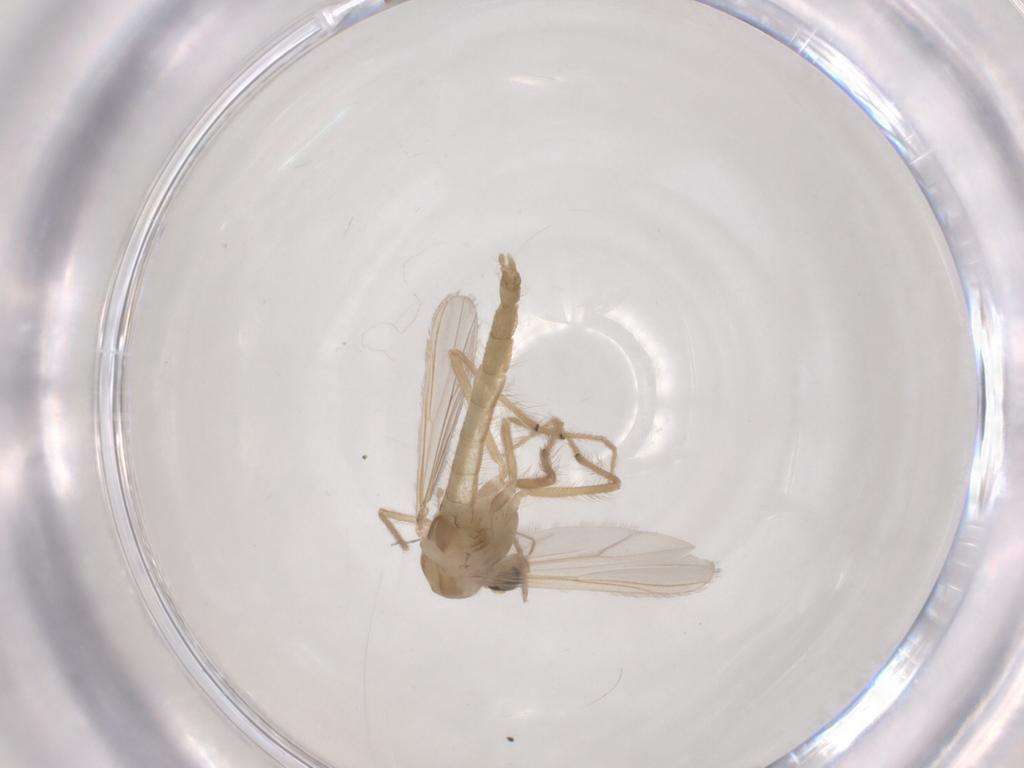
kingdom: Animalia
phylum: Arthropoda
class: Insecta
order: Diptera
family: Chironomidae
